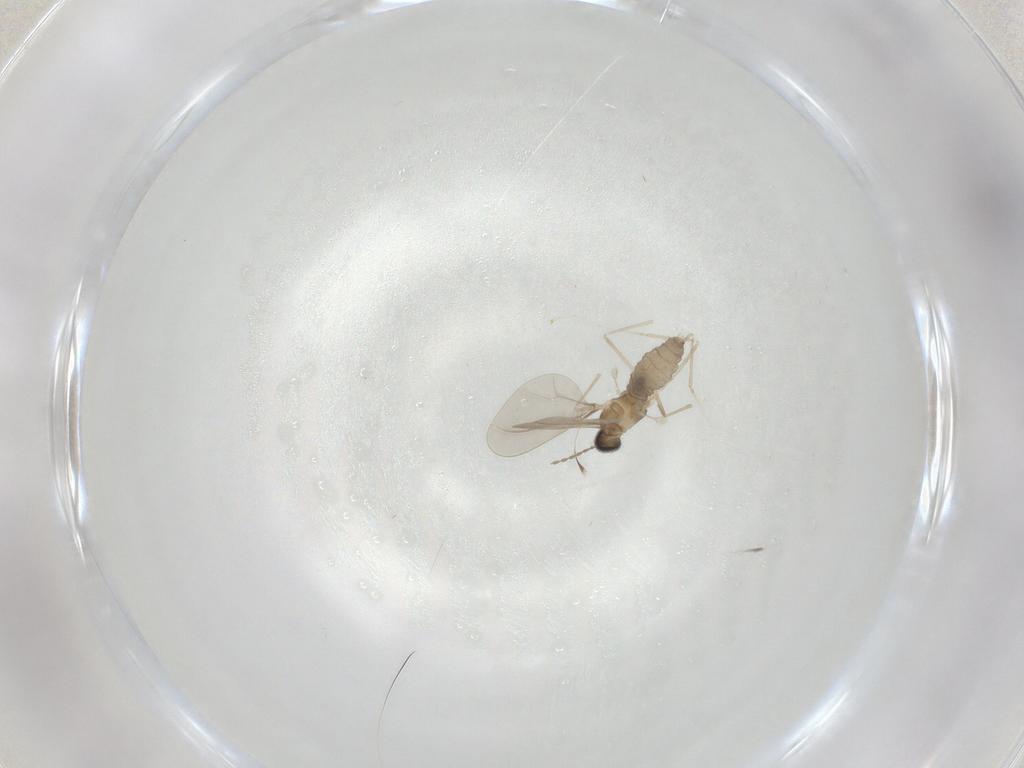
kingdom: Animalia
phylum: Arthropoda
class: Insecta
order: Diptera
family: Cecidomyiidae
